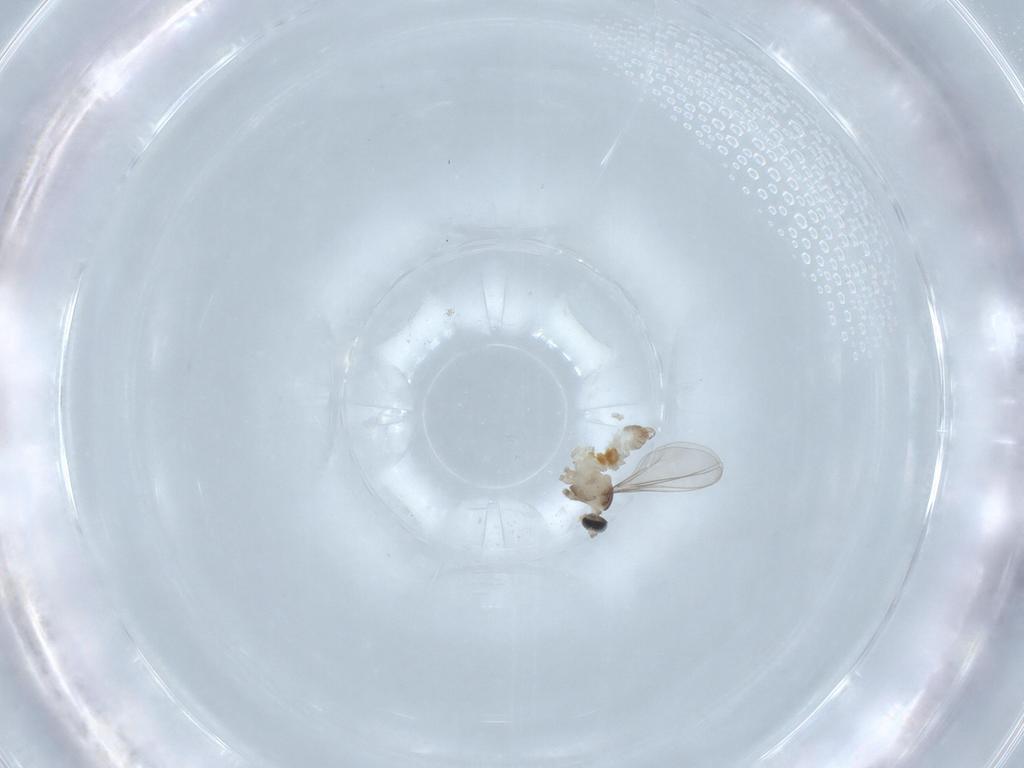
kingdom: Animalia
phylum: Arthropoda
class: Insecta
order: Diptera
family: Cecidomyiidae
